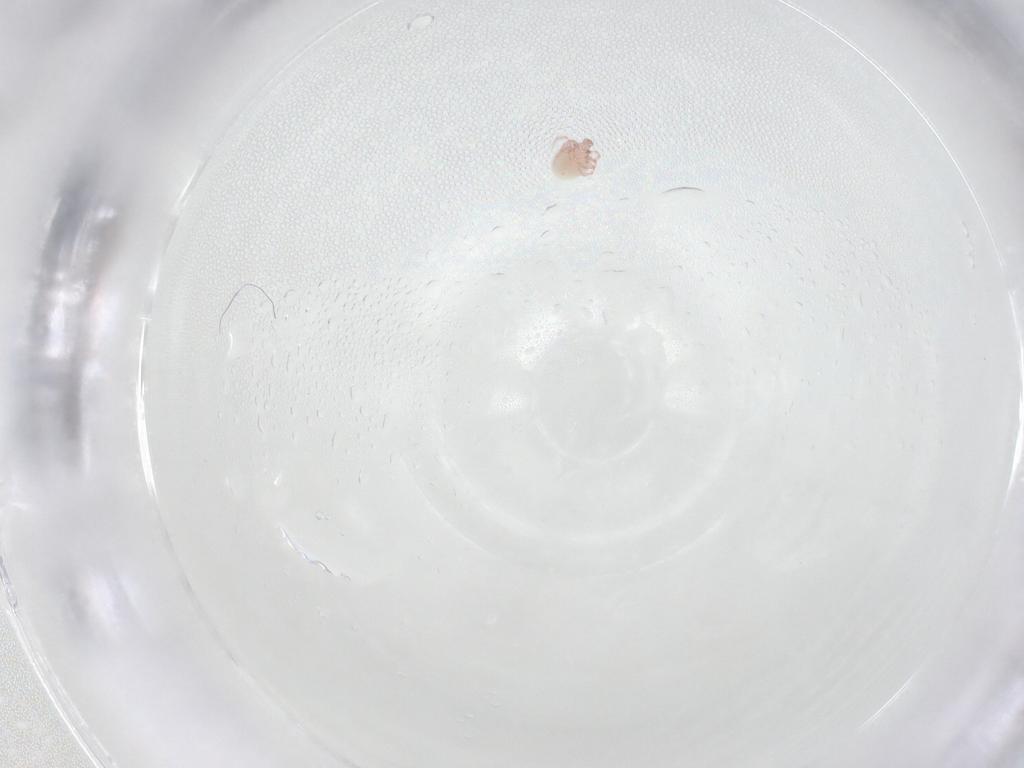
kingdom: Animalia
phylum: Arthropoda
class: Arachnida
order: Trombidiformes
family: Pionidae
